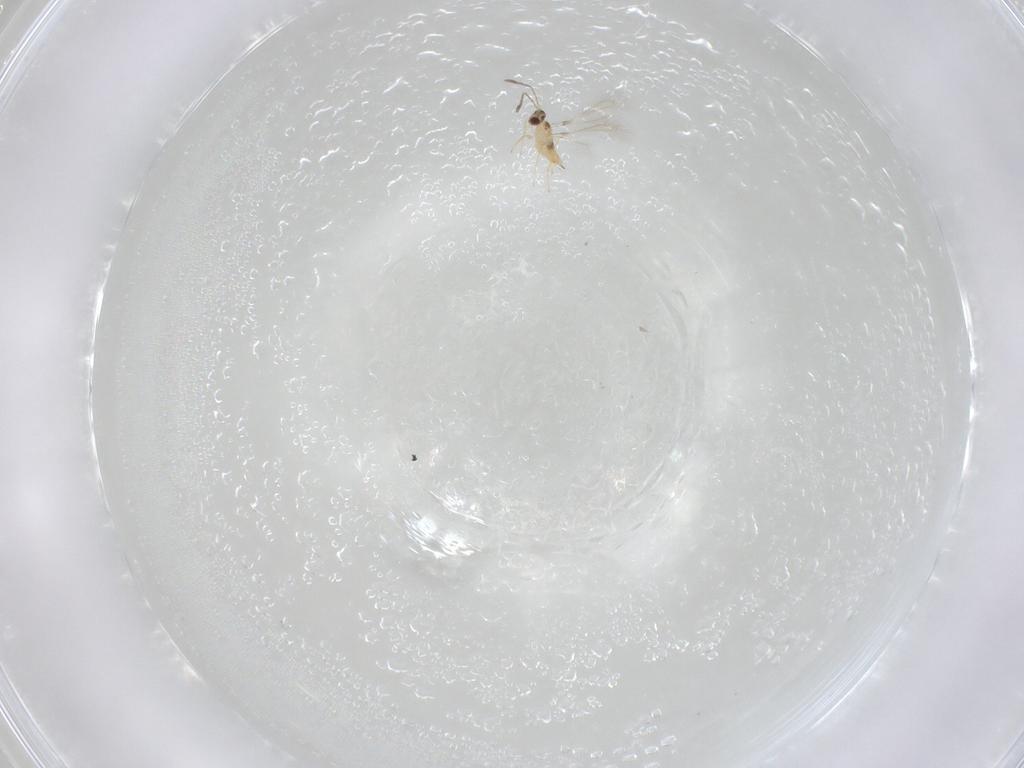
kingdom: Animalia
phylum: Arthropoda
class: Insecta
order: Hymenoptera
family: Mymaridae
